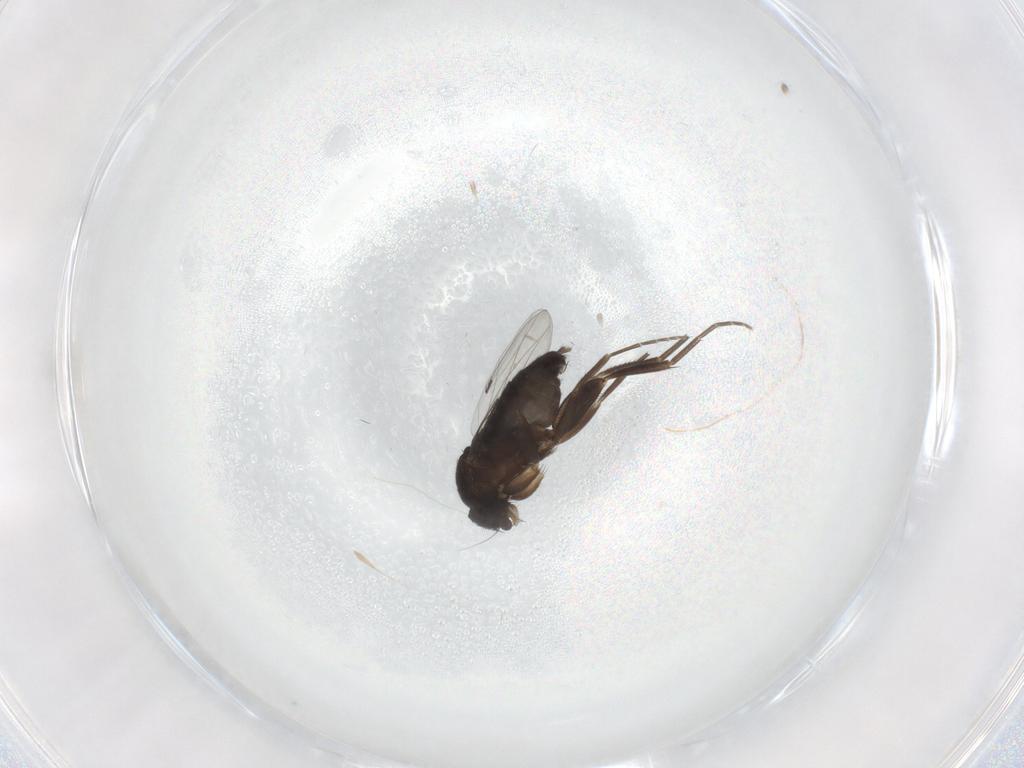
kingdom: Animalia
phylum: Arthropoda
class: Insecta
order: Diptera
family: Phoridae
